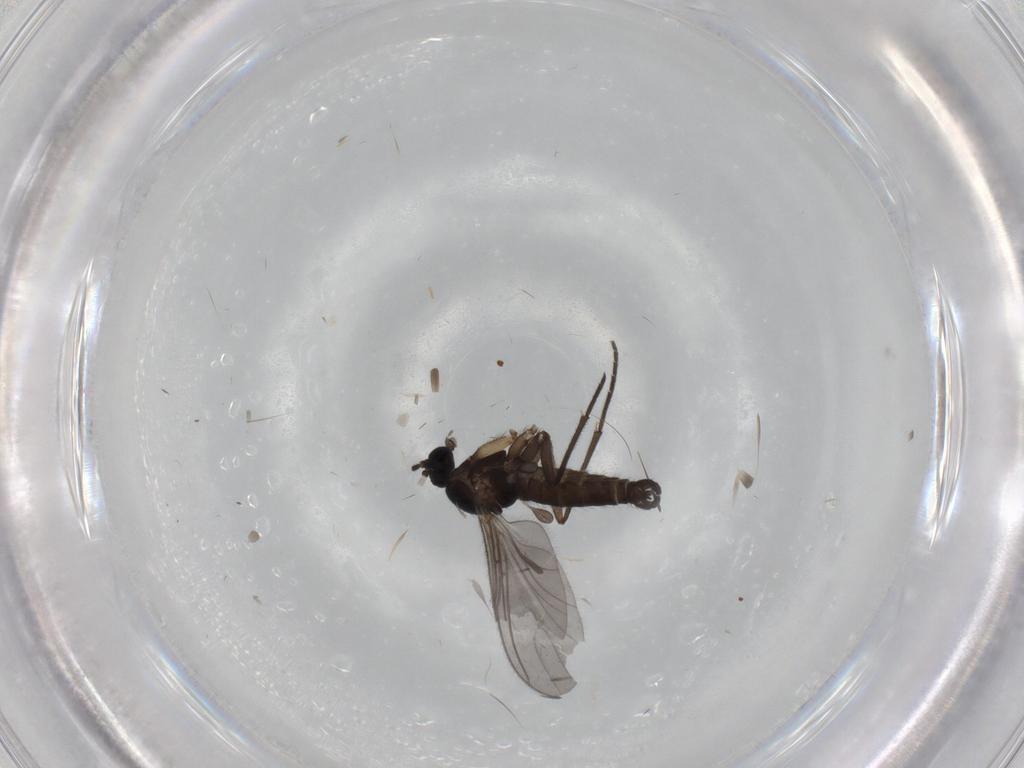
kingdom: Animalia
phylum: Arthropoda
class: Insecta
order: Diptera
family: Sciaridae
